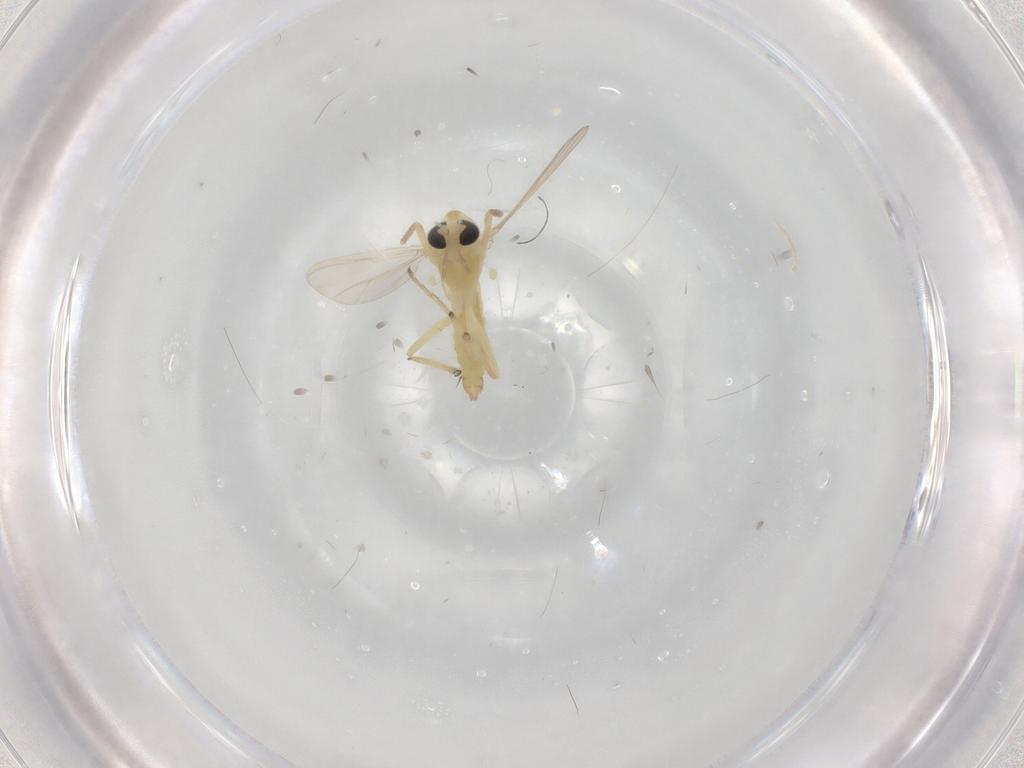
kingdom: Animalia
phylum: Arthropoda
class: Insecta
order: Diptera
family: Chironomidae
